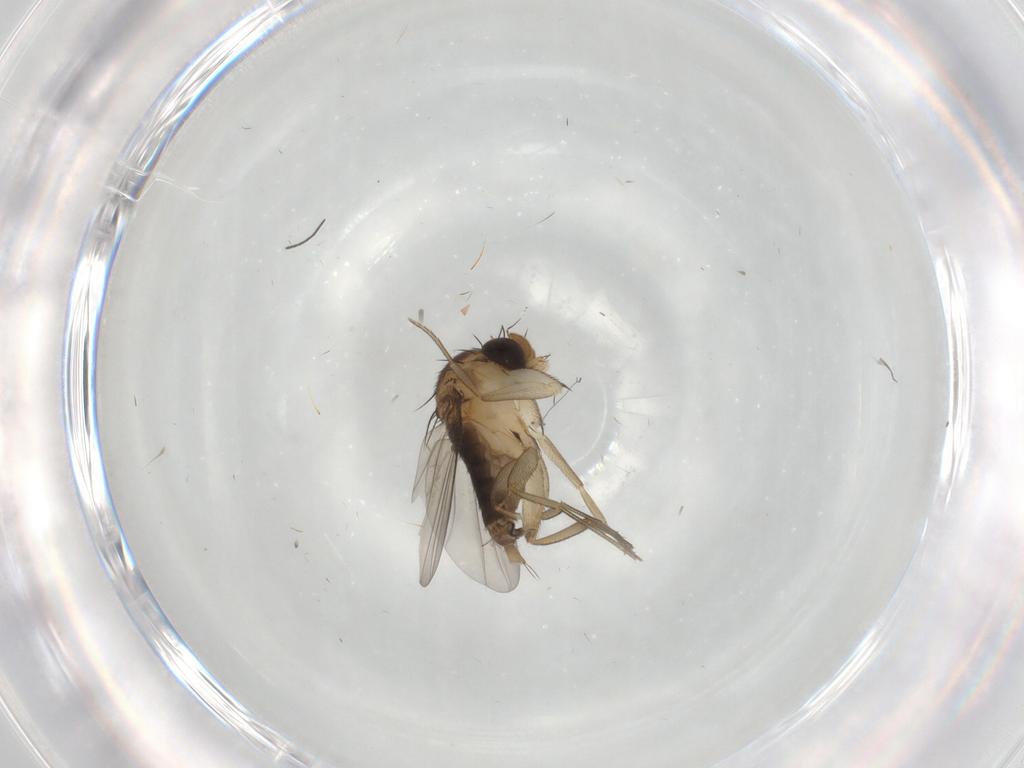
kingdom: Animalia
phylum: Arthropoda
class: Insecta
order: Diptera
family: Phoridae
